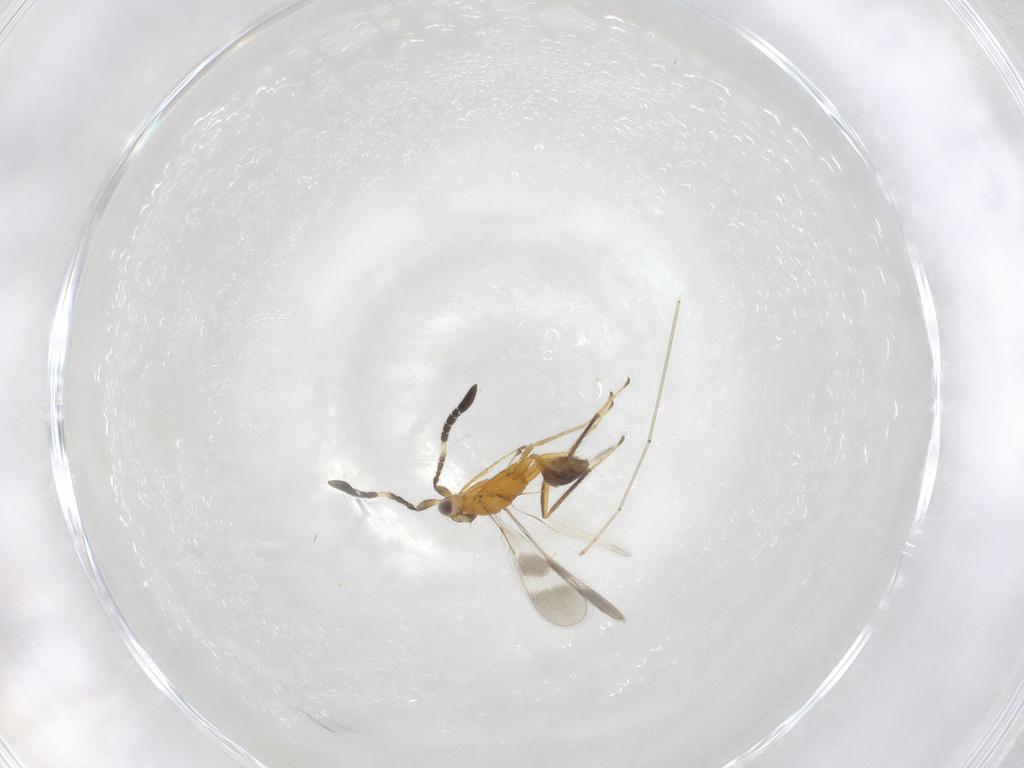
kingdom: Animalia
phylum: Arthropoda
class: Insecta
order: Hymenoptera
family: Mymaridae
